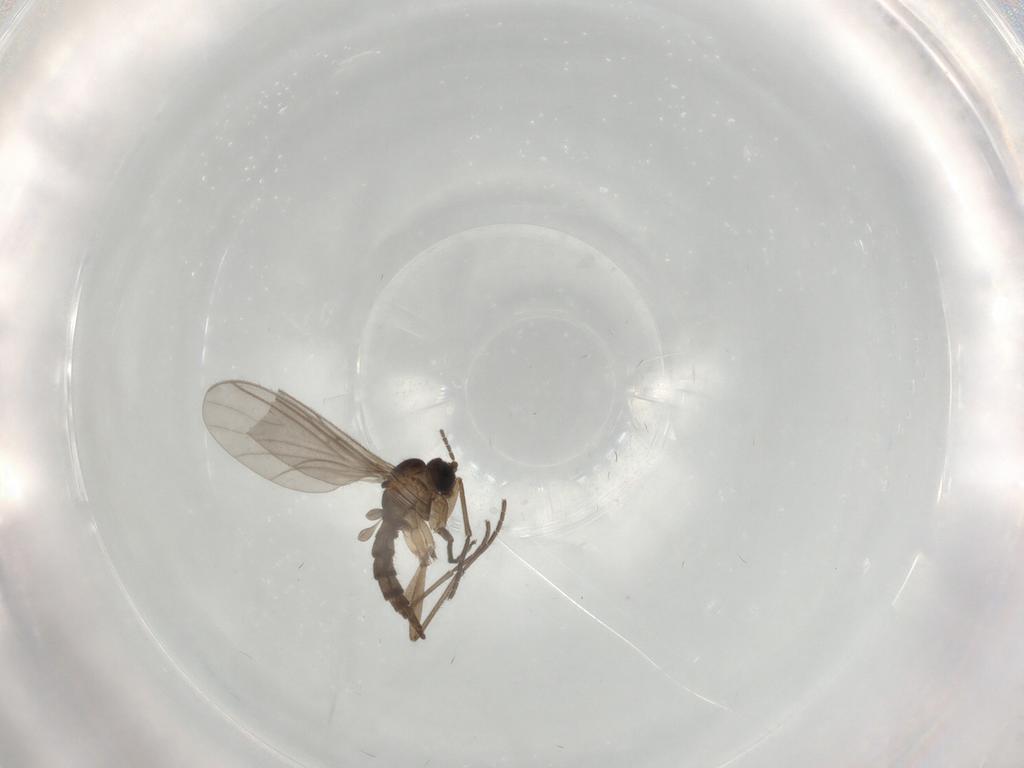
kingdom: Animalia
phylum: Arthropoda
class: Insecta
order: Diptera
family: Sciaridae
